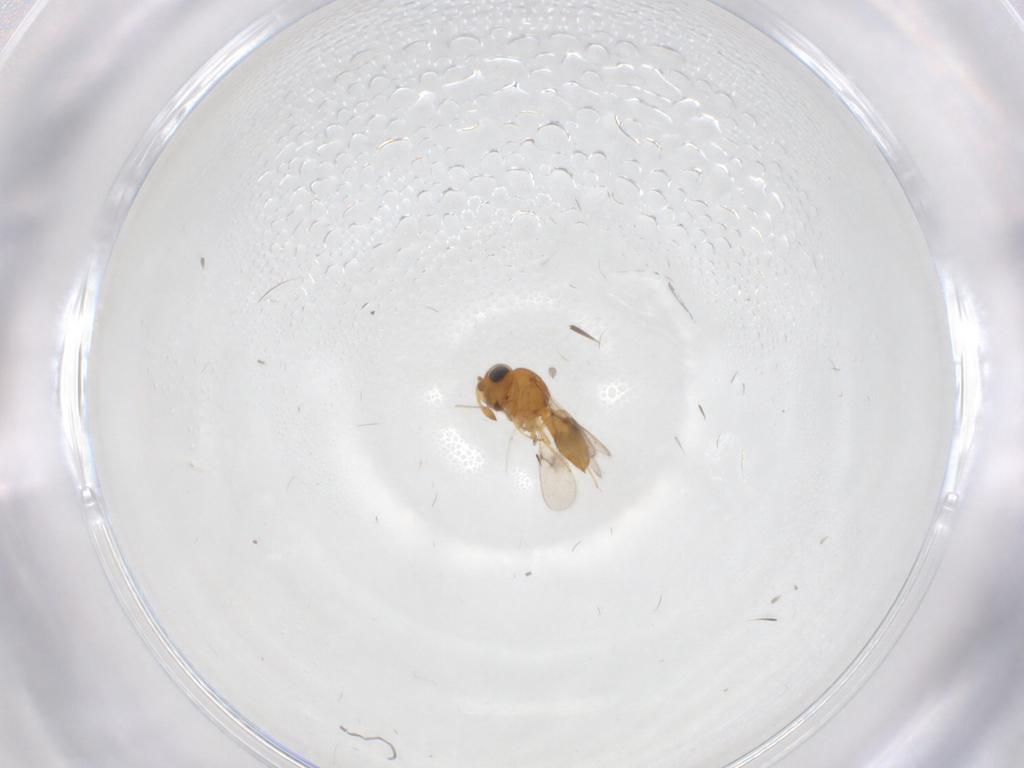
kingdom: Animalia
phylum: Arthropoda
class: Insecta
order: Hymenoptera
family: Scelionidae
